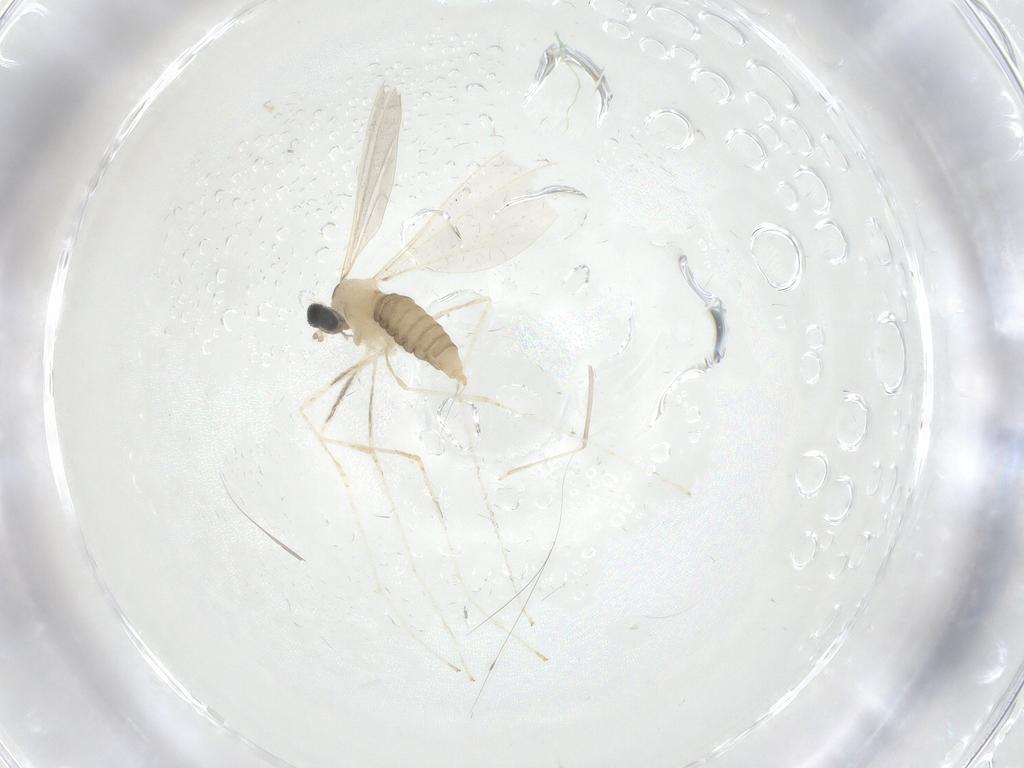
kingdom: Animalia
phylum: Arthropoda
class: Insecta
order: Diptera
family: Cecidomyiidae
